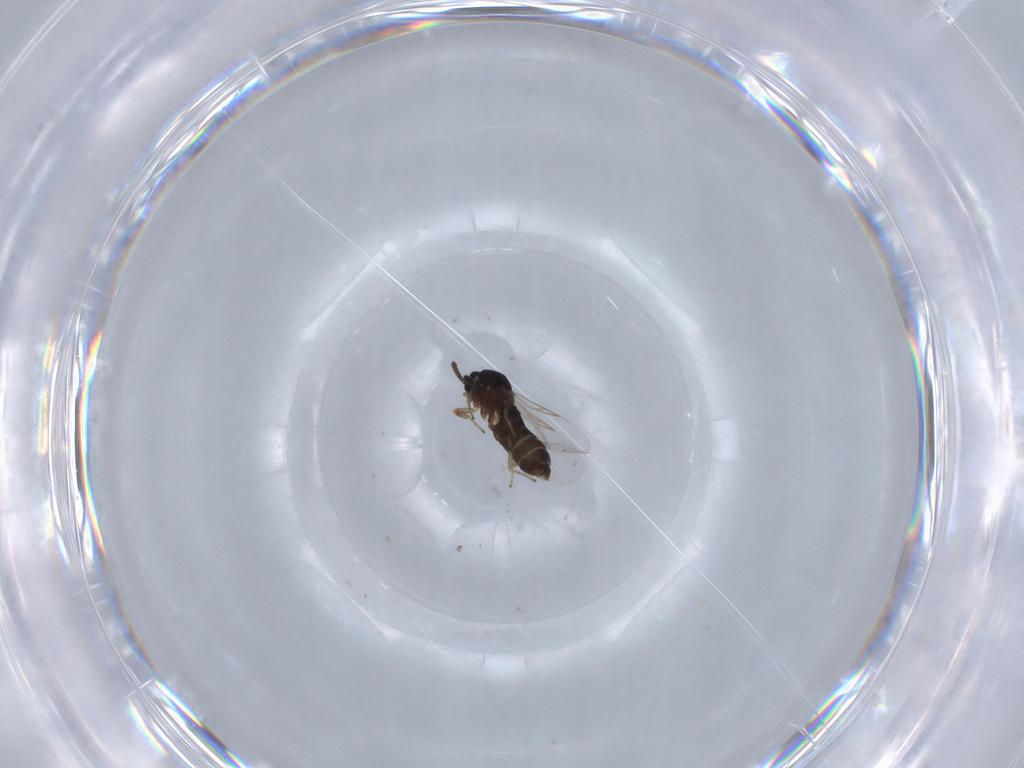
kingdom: Animalia
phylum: Arthropoda
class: Insecta
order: Diptera
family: Scatopsidae
